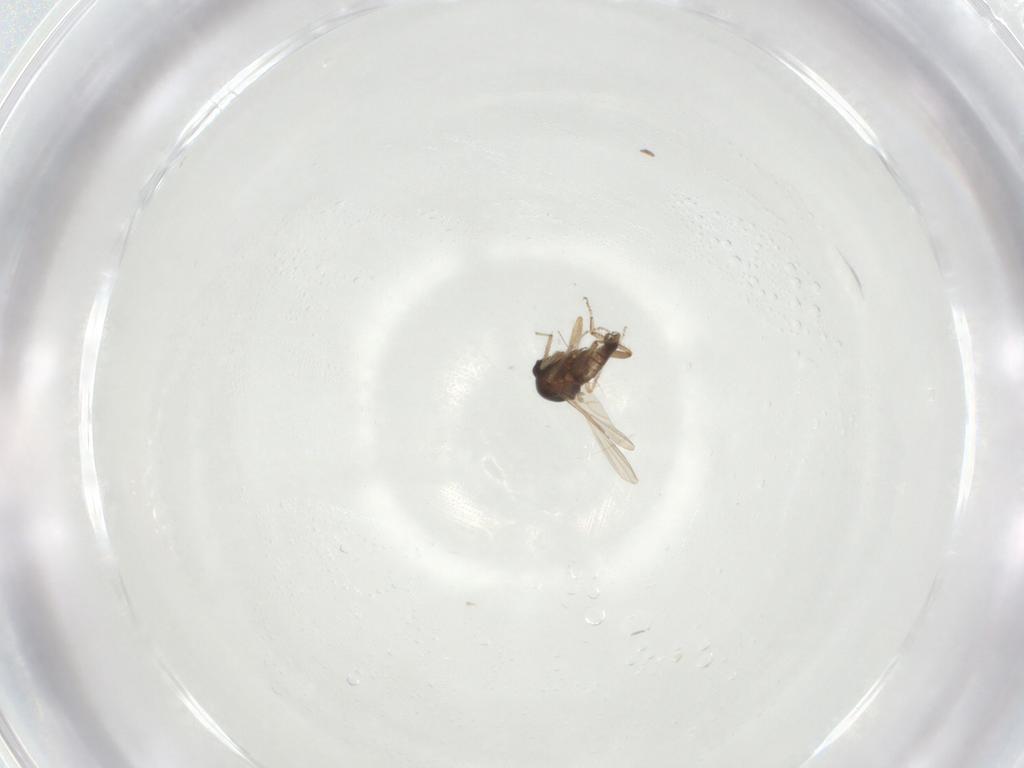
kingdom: Animalia
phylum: Arthropoda
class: Insecta
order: Diptera
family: Ceratopogonidae
